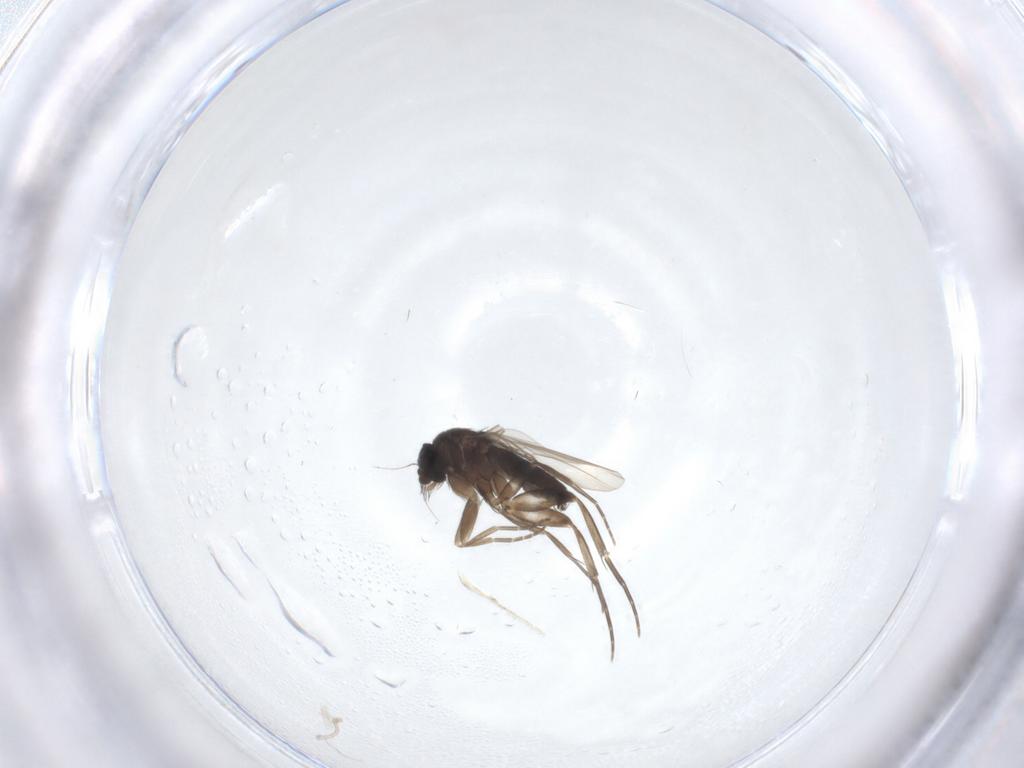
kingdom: Animalia
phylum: Arthropoda
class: Insecta
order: Diptera
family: Phoridae
